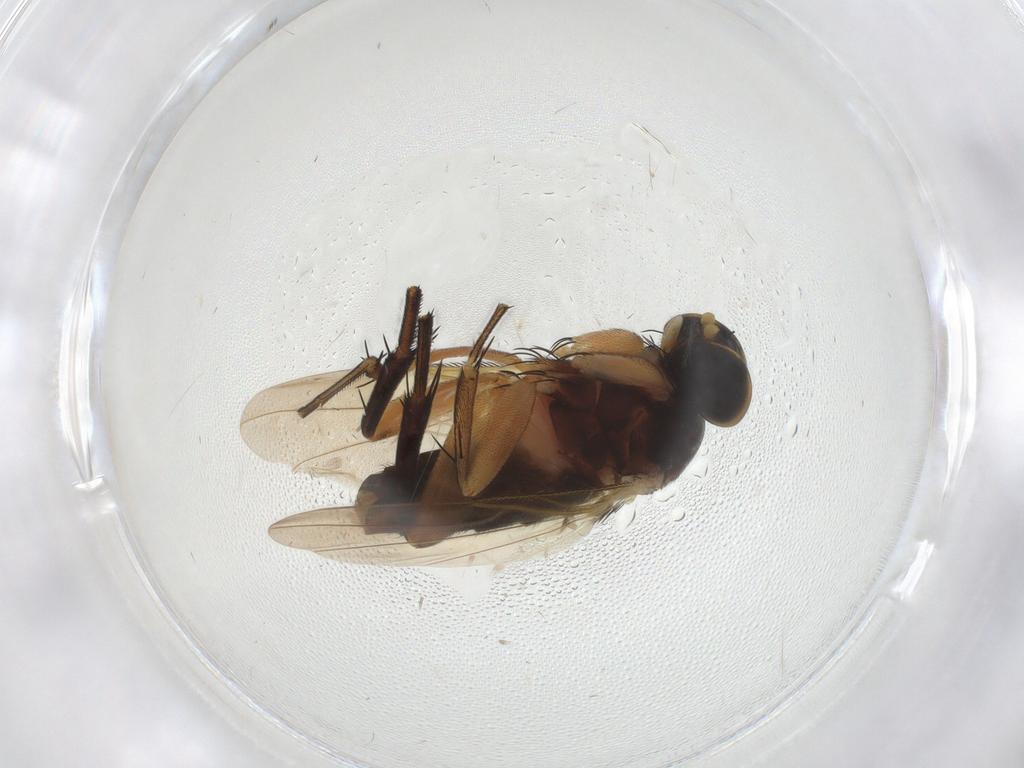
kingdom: Animalia
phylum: Arthropoda
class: Insecta
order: Diptera
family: Phoridae
